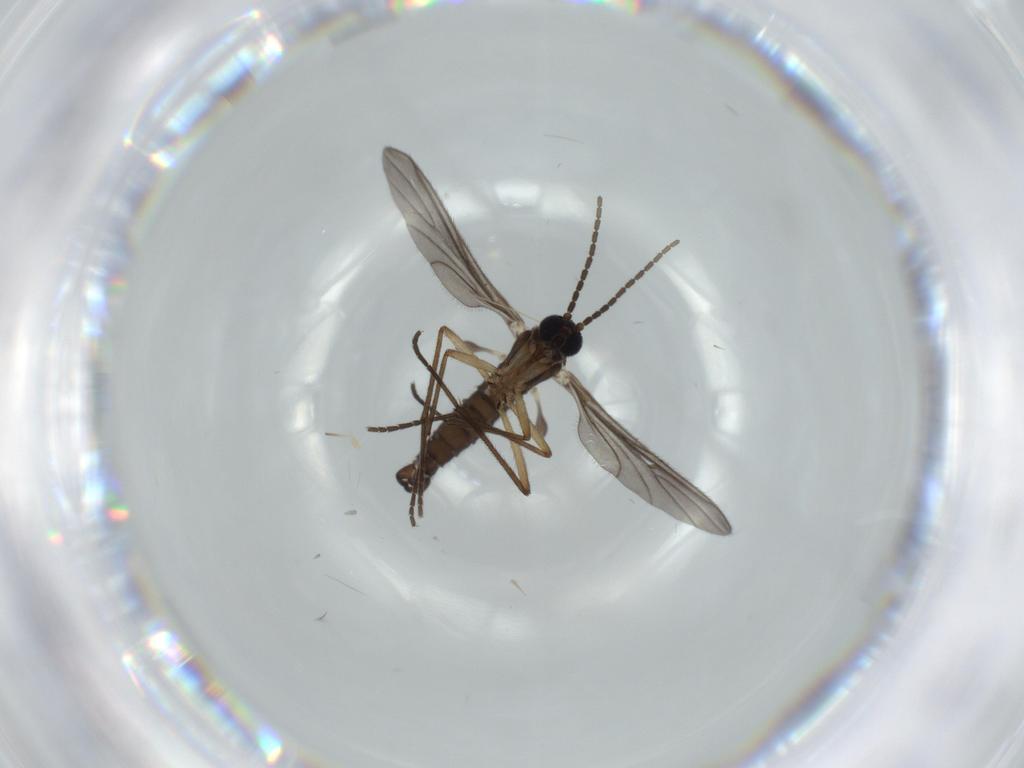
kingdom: Animalia
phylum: Arthropoda
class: Insecta
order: Diptera
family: Sciaridae
